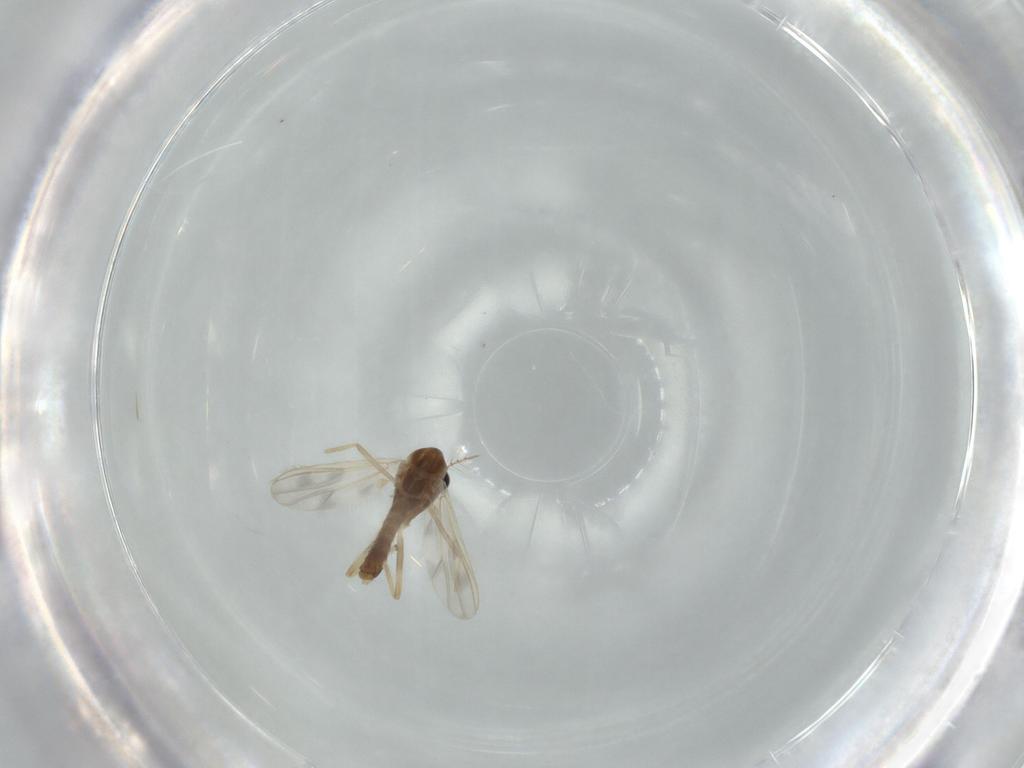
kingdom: Animalia
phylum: Arthropoda
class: Insecta
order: Diptera
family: Chironomidae
